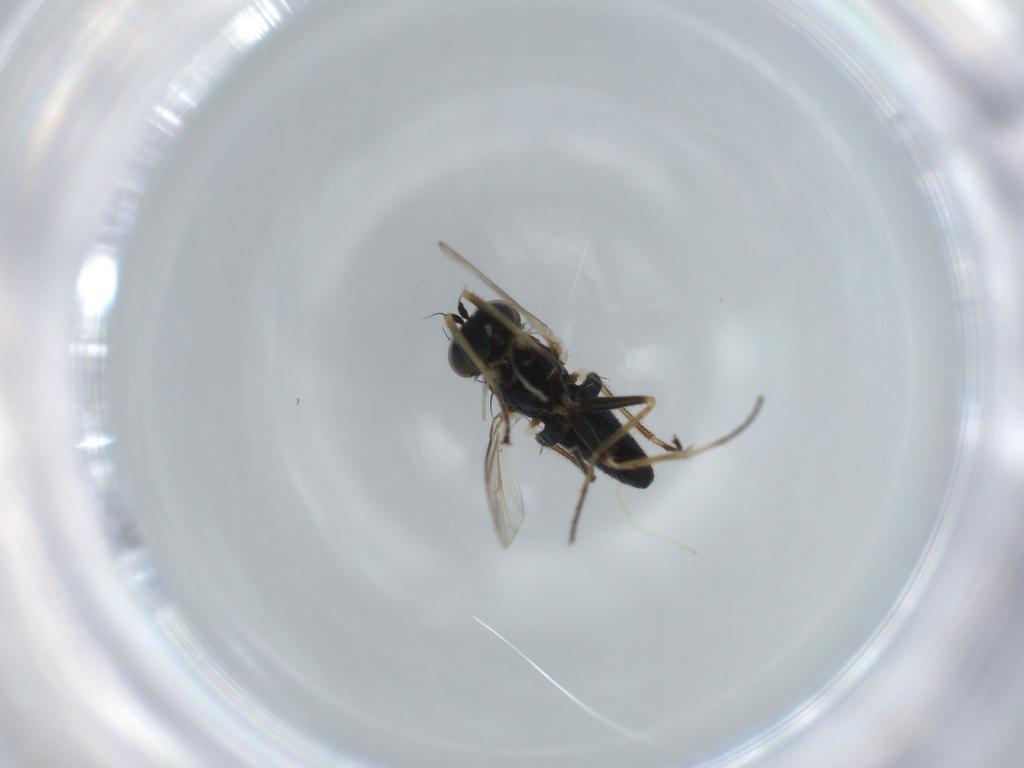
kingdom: Animalia
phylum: Arthropoda
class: Insecta
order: Diptera
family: Dolichopodidae
